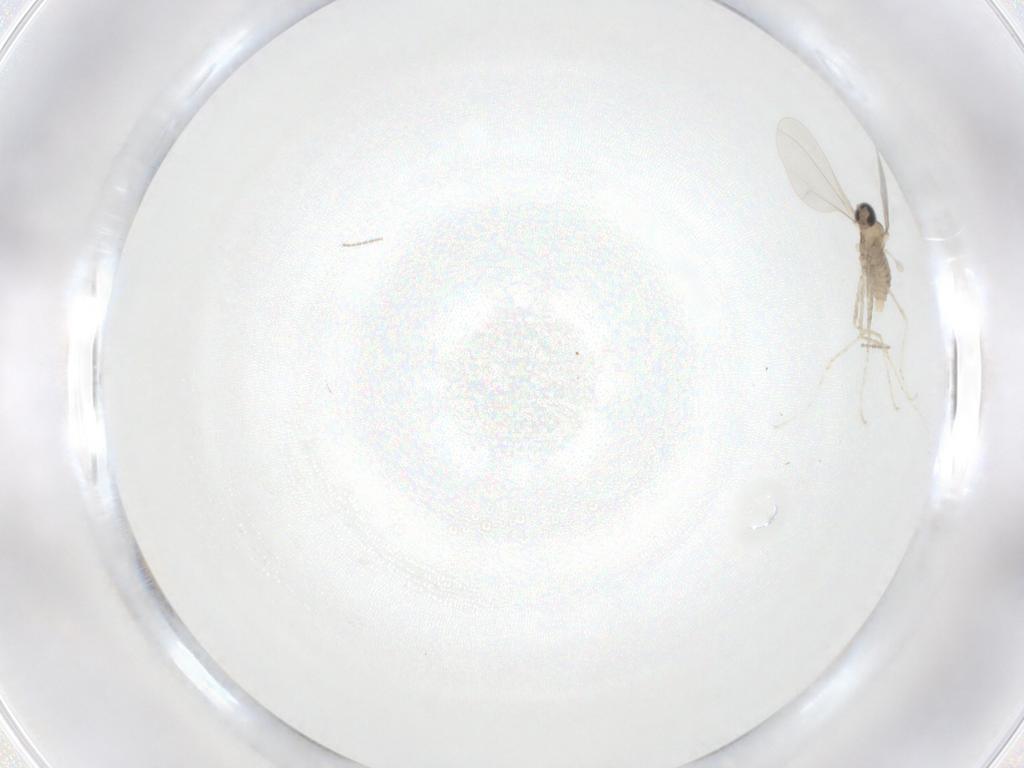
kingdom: Animalia
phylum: Arthropoda
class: Insecta
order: Diptera
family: Cecidomyiidae
